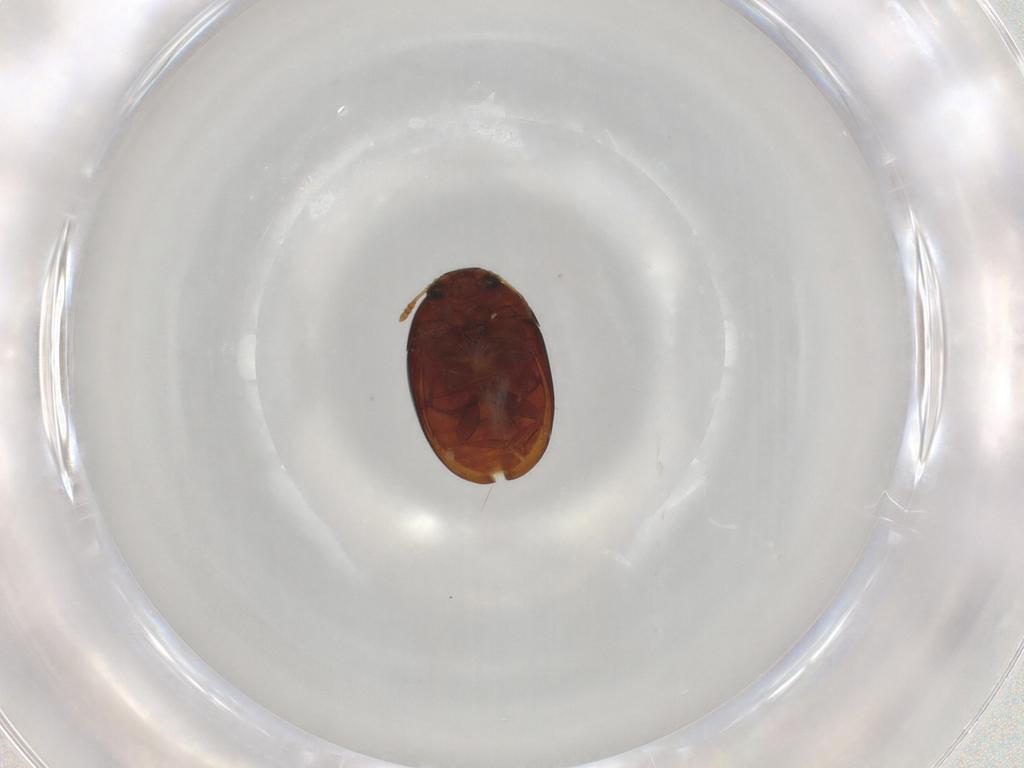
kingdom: Animalia
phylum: Arthropoda
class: Insecta
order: Coleoptera
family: Phalacridae
